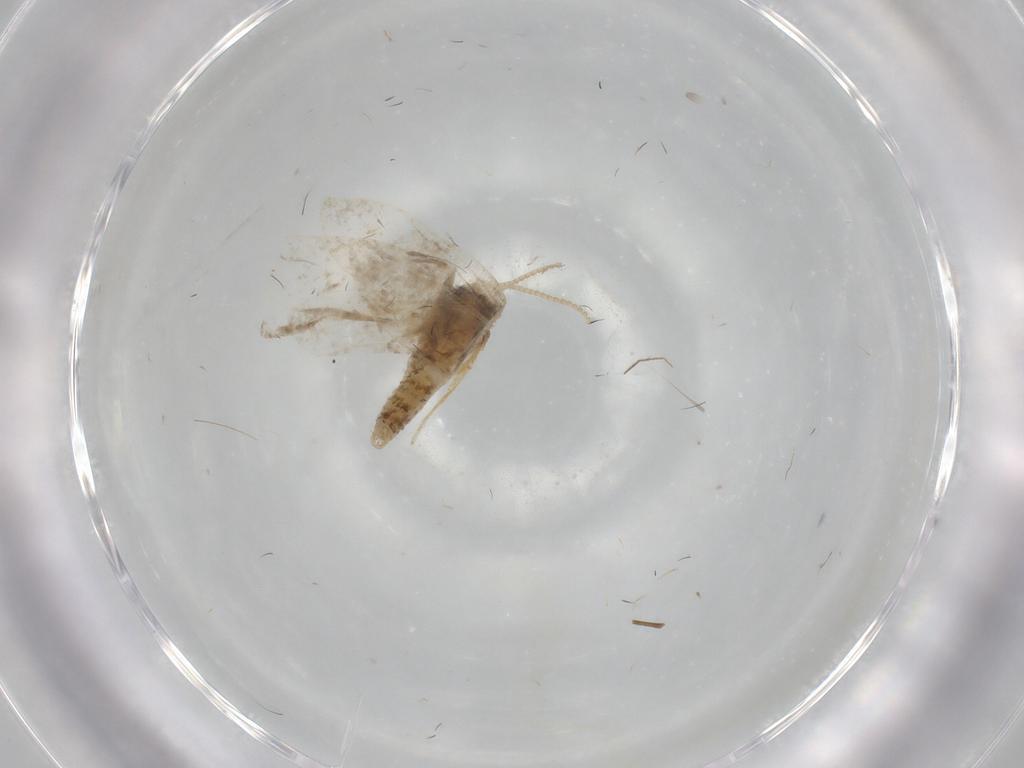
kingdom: Animalia
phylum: Arthropoda
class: Insecta
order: Lepidoptera
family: Psychidae
